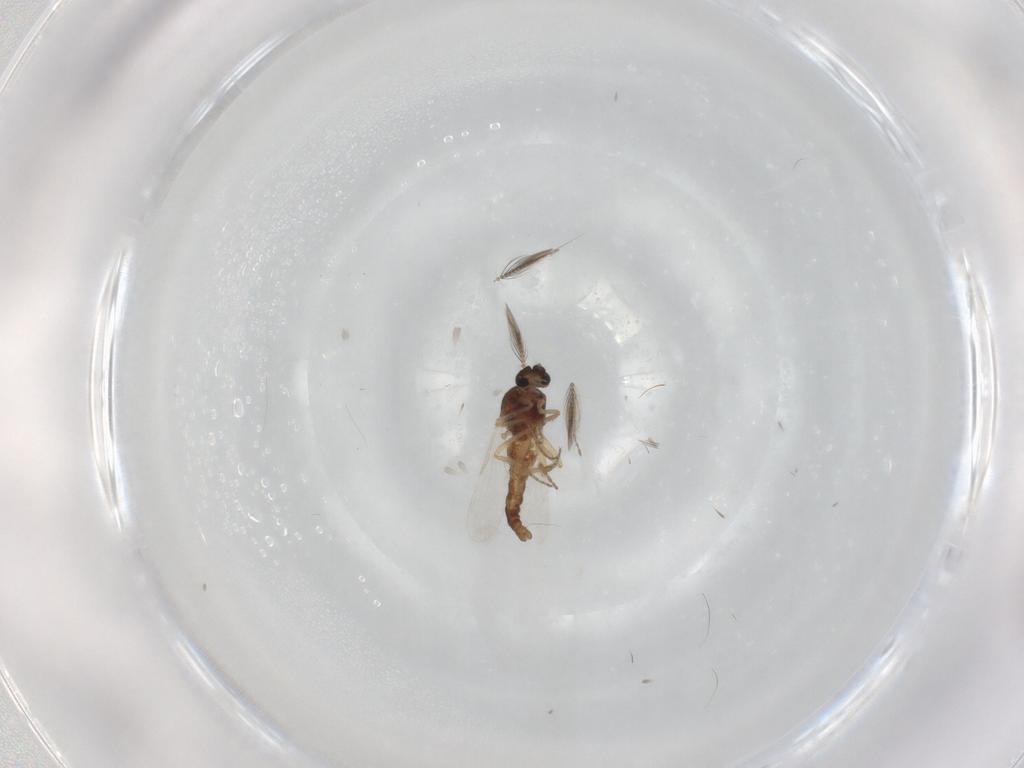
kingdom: Animalia
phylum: Arthropoda
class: Insecta
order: Diptera
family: Ceratopogonidae
